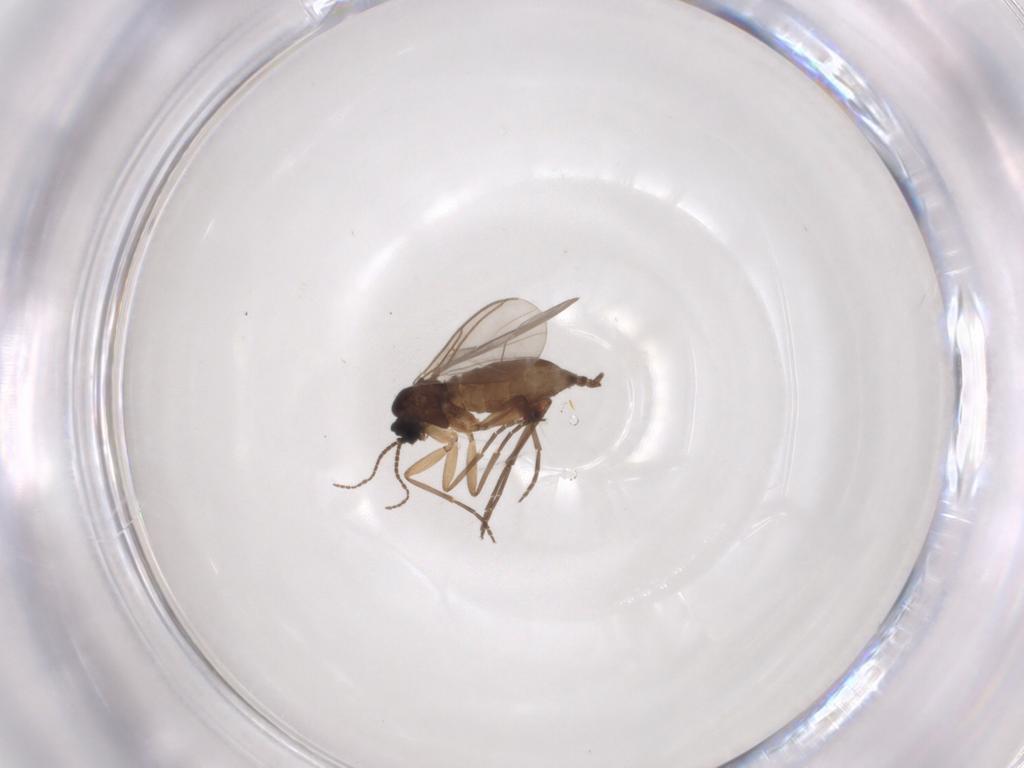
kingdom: Animalia
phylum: Arthropoda
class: Insecta
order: Diptera
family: Sciaridae
